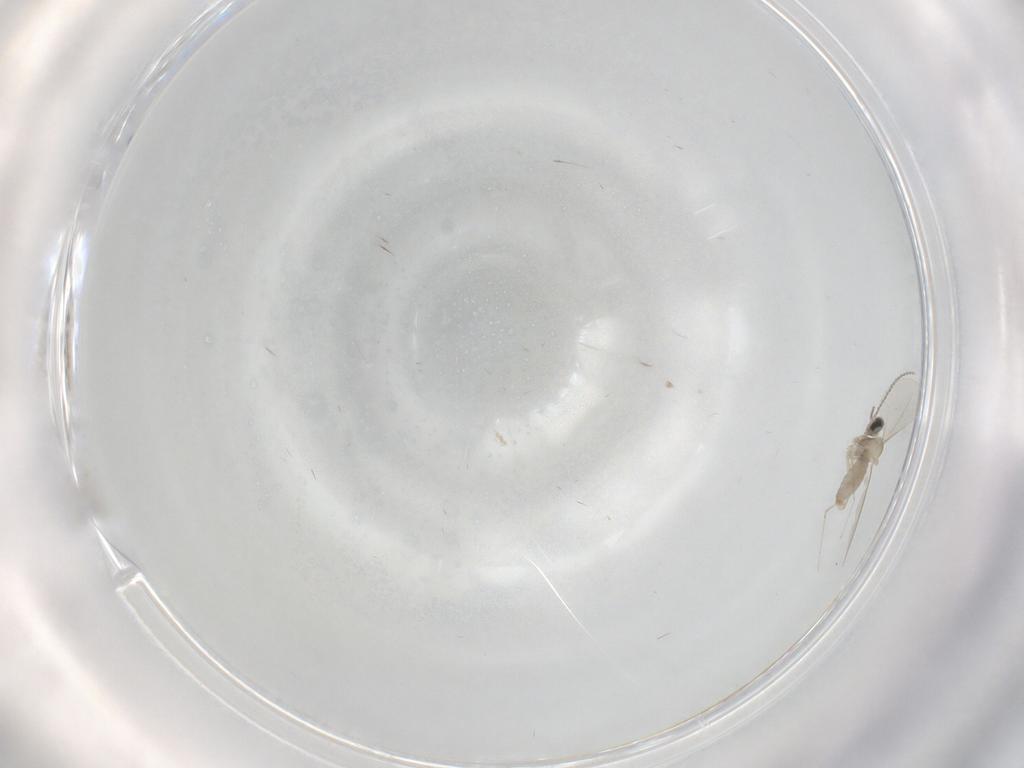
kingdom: Animalia
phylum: Arthropoda
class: Insecta
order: Diptera
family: Cecidomyiidae
